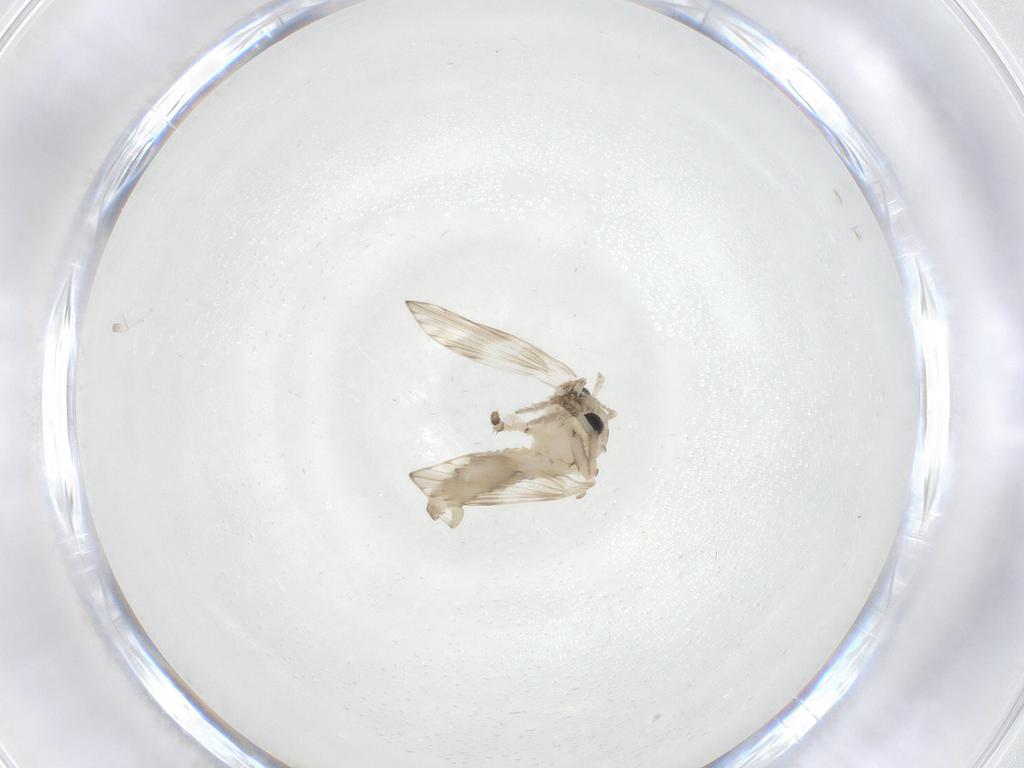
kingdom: Animalia
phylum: Arthropoda
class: Insecta
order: Diptera
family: Psychodidae
